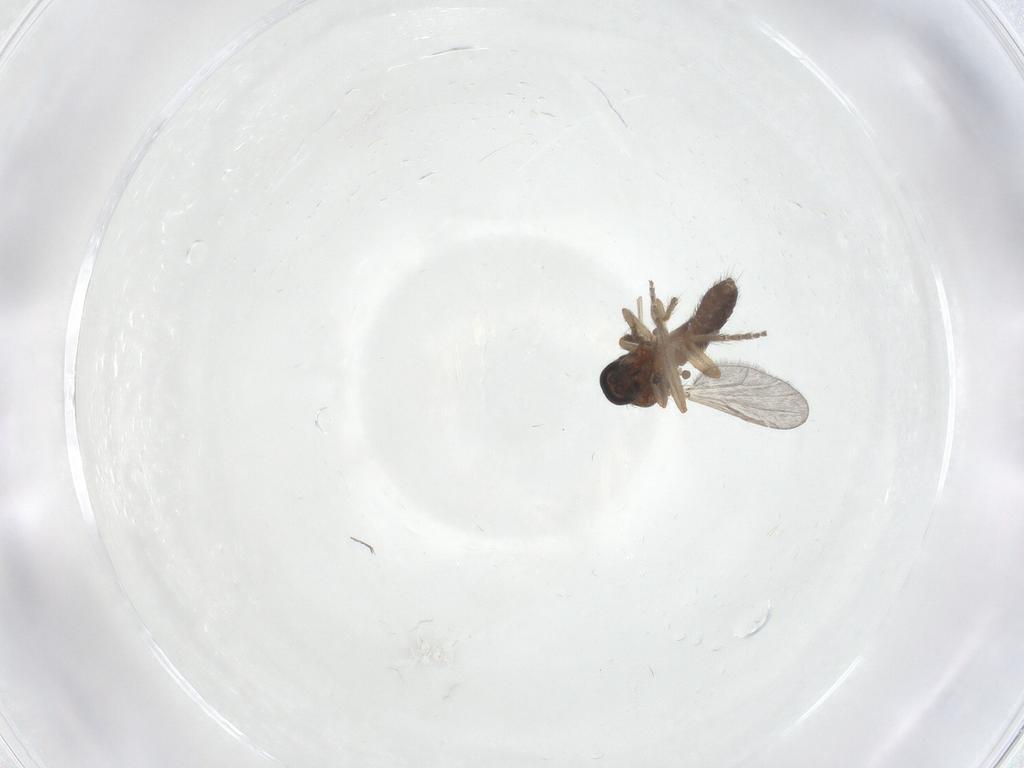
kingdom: Animalia
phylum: Arthropoda
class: Insecta
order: Diptera
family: Ceratopogonidae
